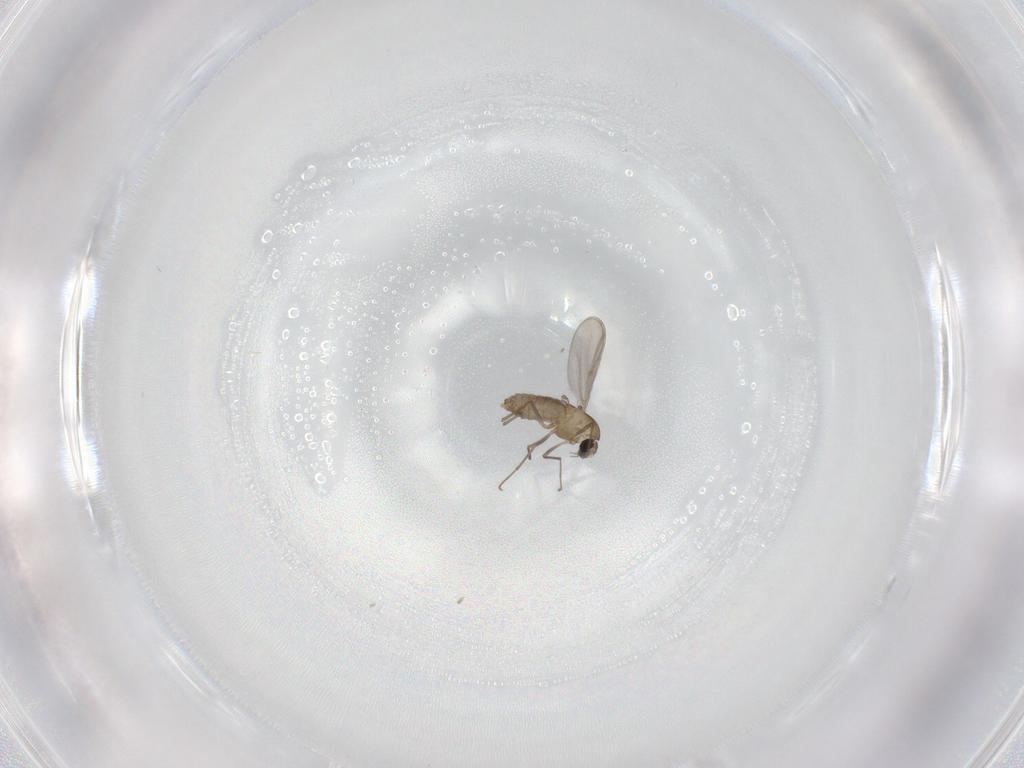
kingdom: Animalia
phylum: Arthropoda
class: Insecta
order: Diptera
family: Chironomidae
